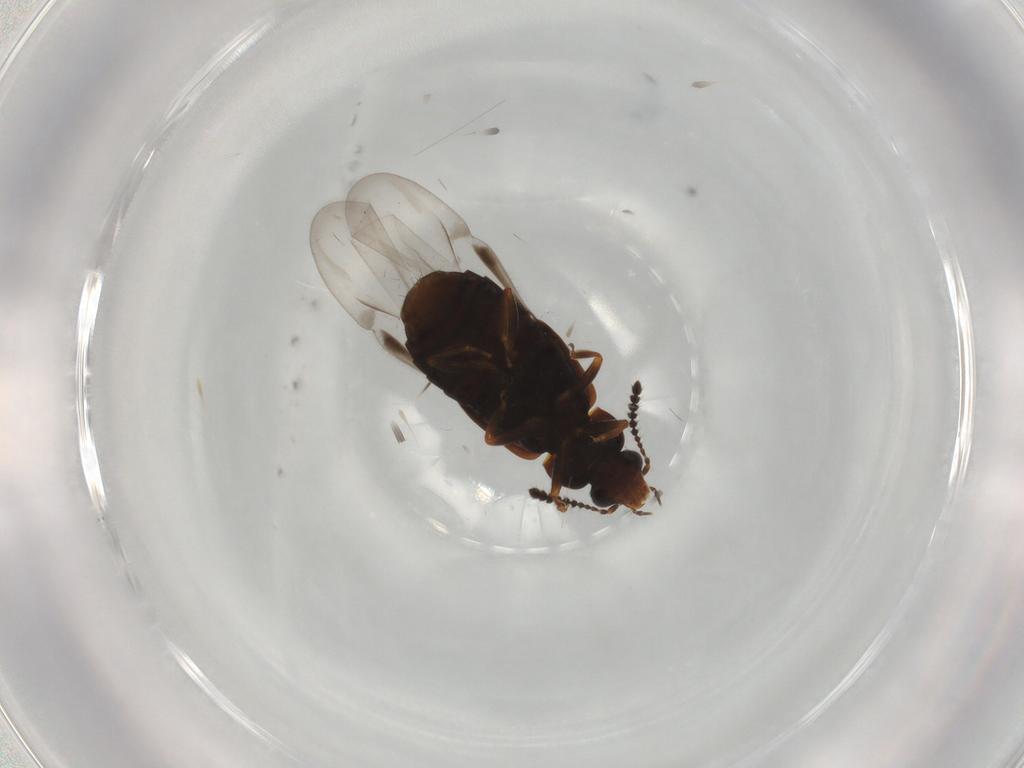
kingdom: Animalia
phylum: Arthropoda
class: Insecta
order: Coleoptera
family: Staphylinidae
